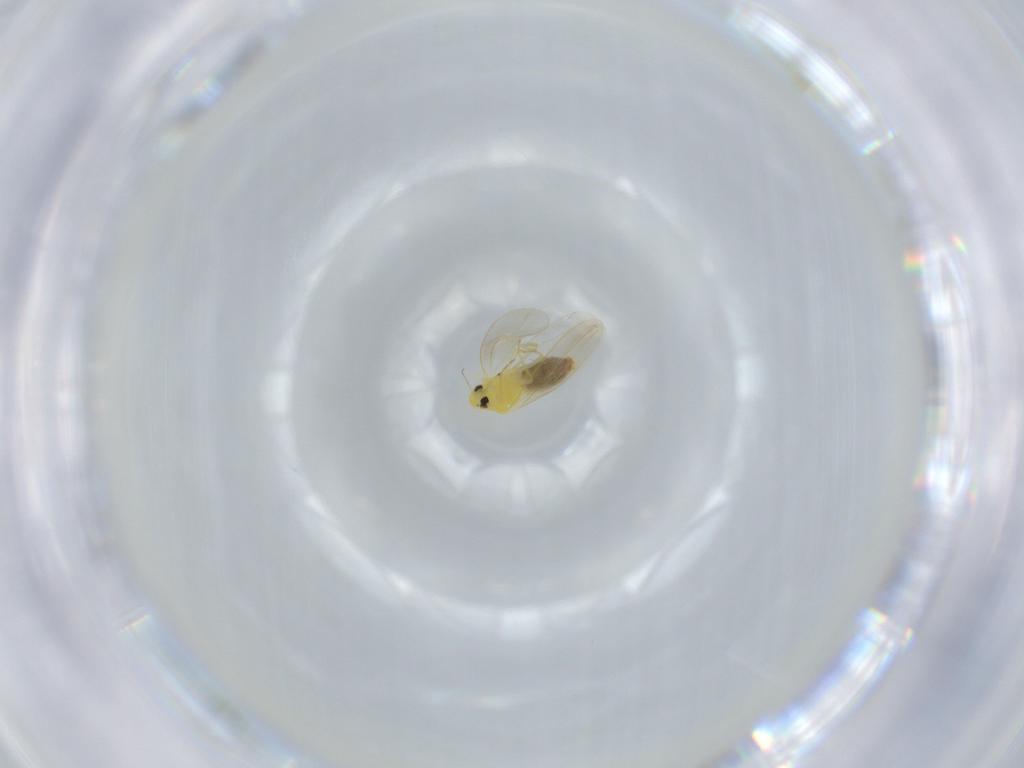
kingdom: Animalia
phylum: Arthropoda
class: Insecta
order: Hemiptera
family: Aleyrodidae
